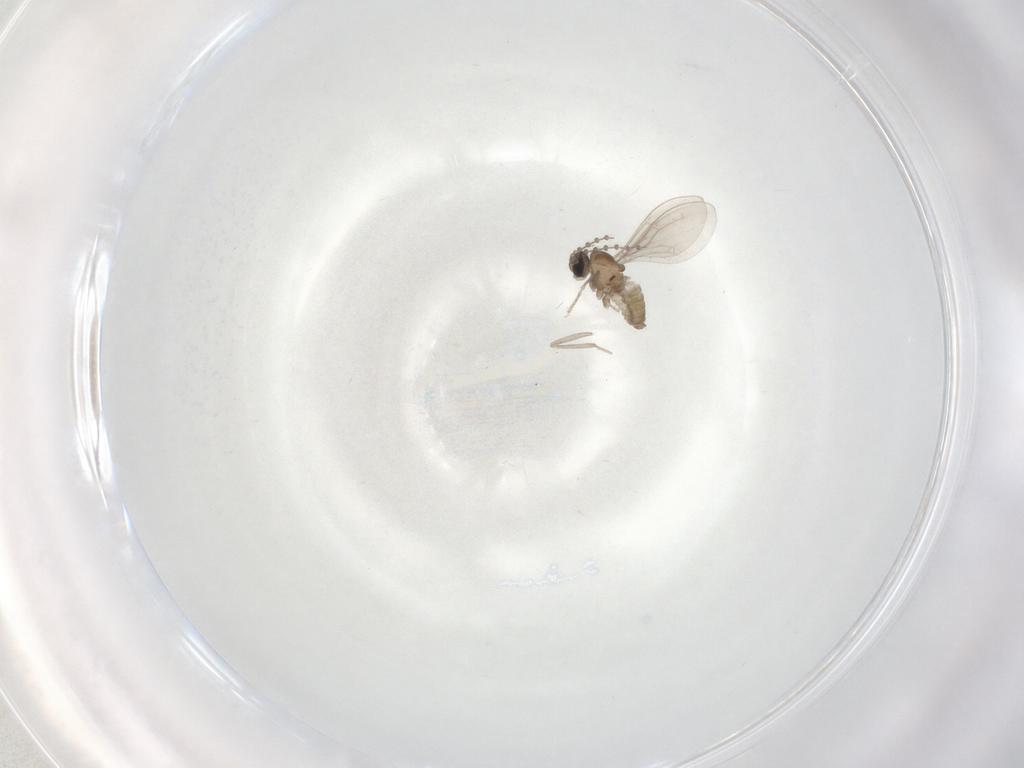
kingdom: Animalia
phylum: Arthropoda
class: Insecta
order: Diptera
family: Cecidomyiidae
